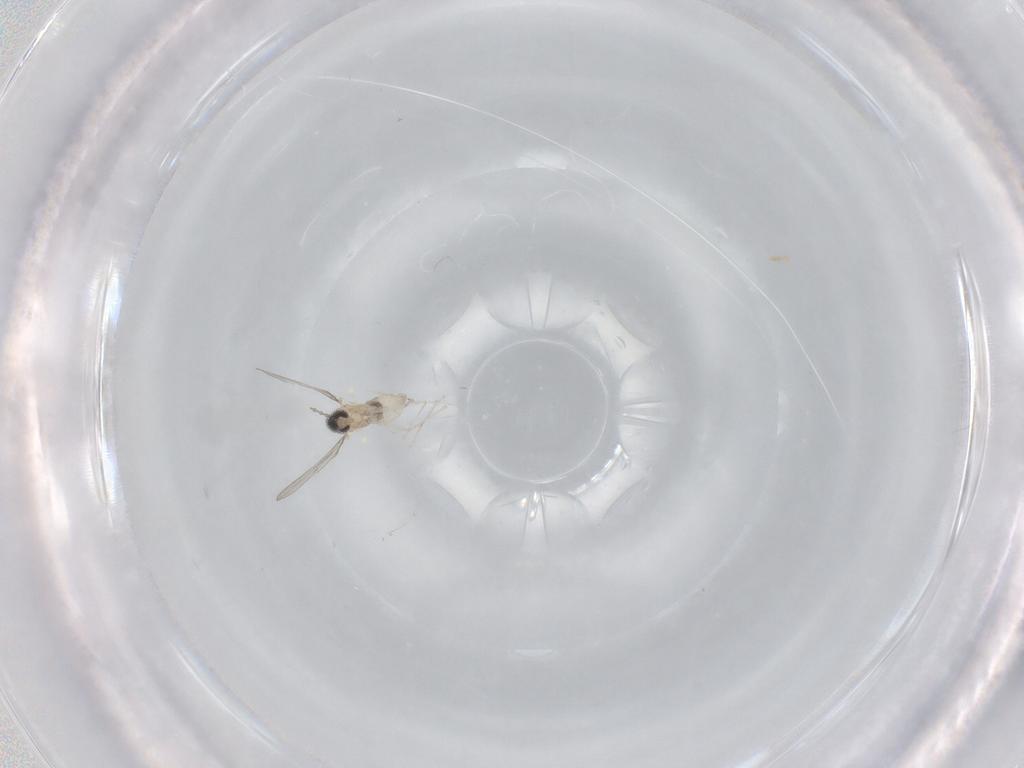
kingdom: Animalia
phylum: Arthropoda
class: Insecta
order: Diptera
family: Cecidomyiidae
